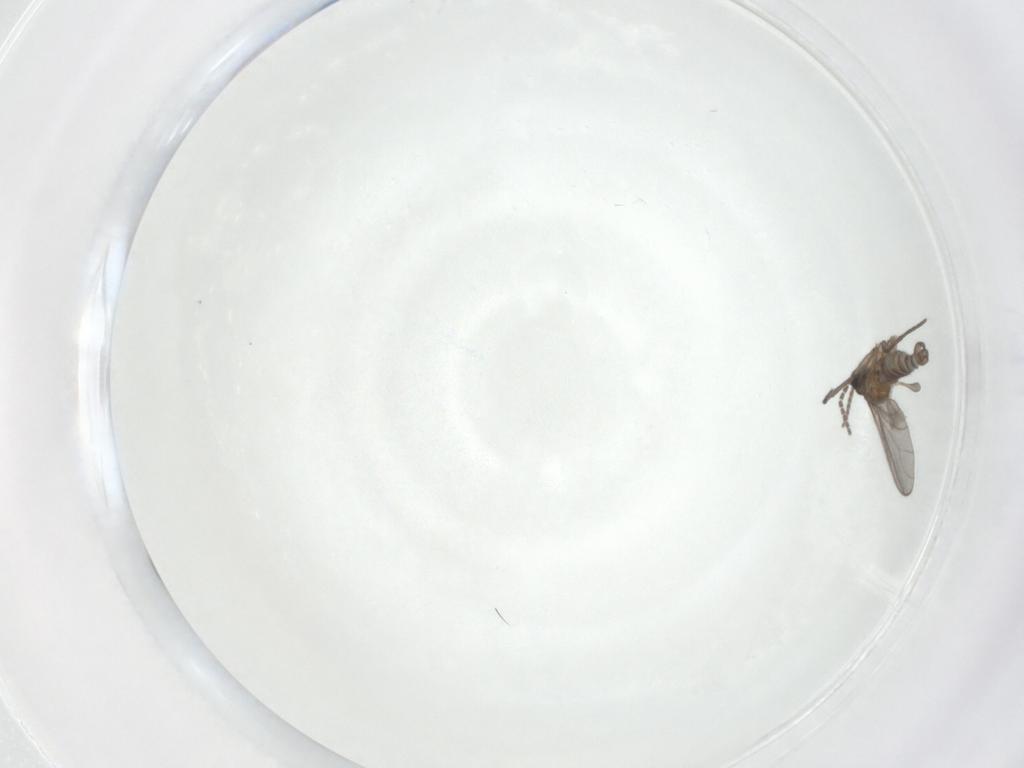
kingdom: Animalia
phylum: Arthropoda
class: Insecta
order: Diptera
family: Sciaridae
